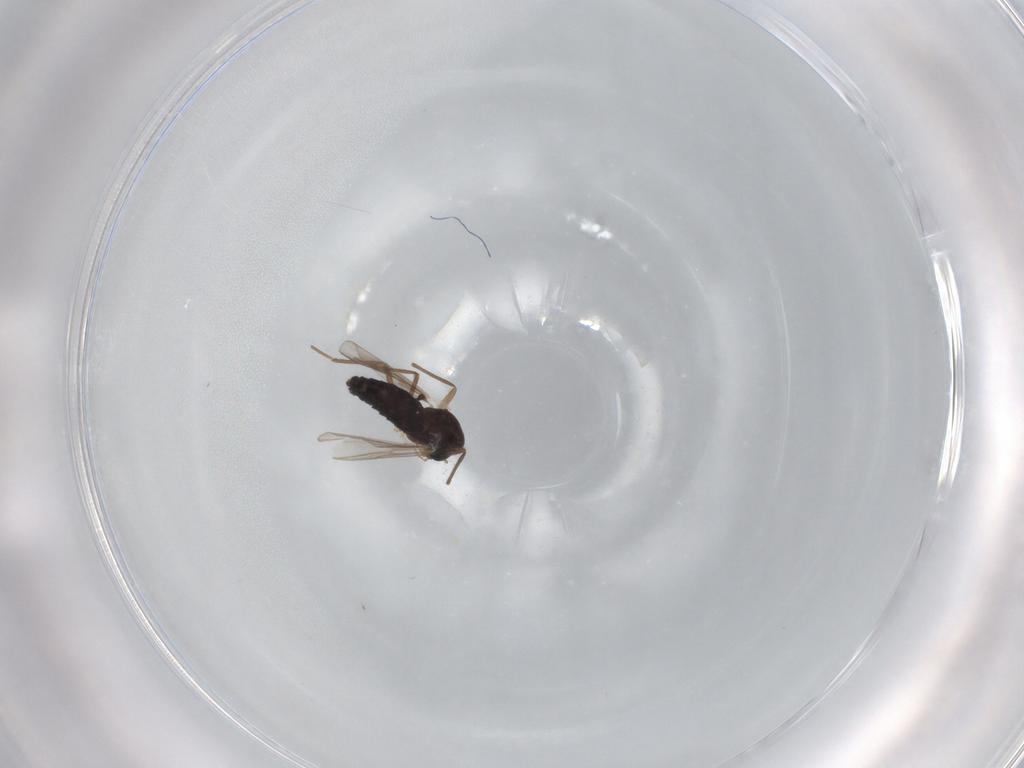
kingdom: Animalia
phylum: Arthropoda
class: Insecta
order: Diptera
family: Chironomidae
